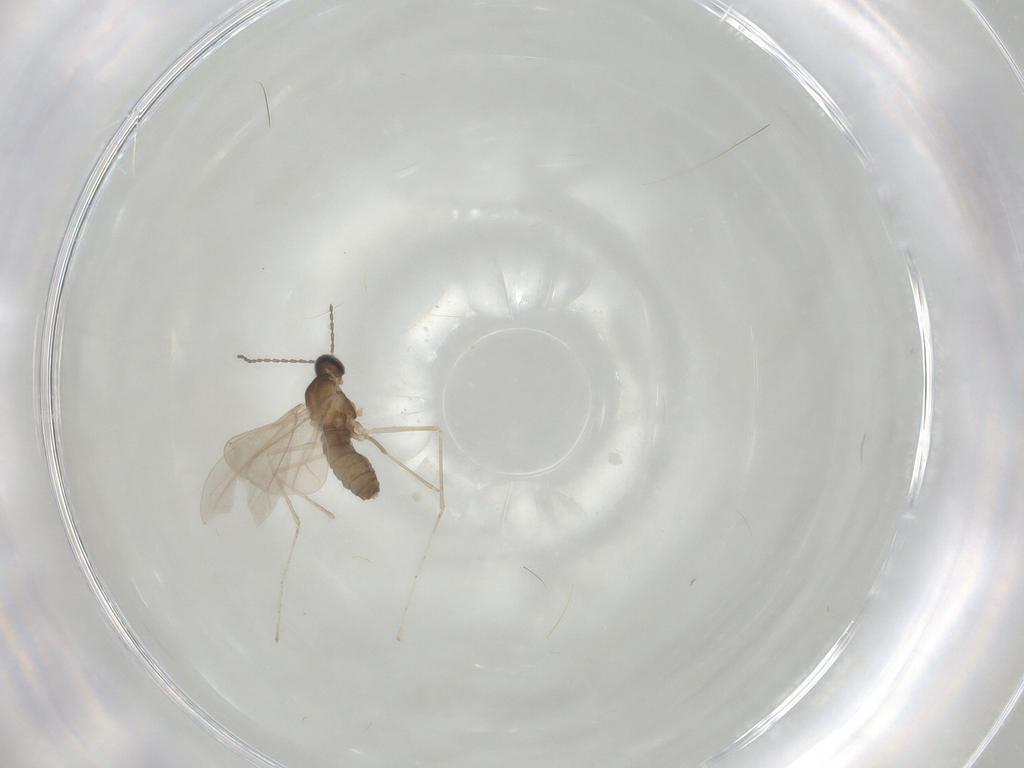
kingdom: Animalia
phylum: Arthropoda
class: Insecta
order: Diptera
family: Cecidomyiidae
